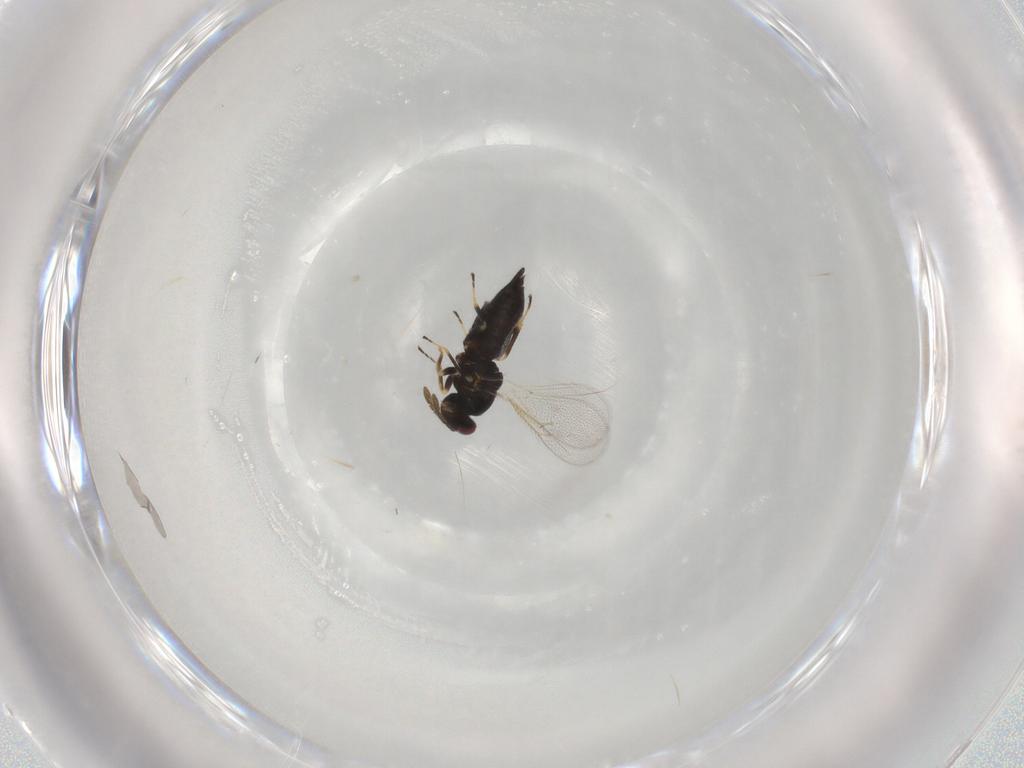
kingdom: Animalia
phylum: Arthropoda
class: Insecta
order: Hymenoptera
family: Eulophidae
